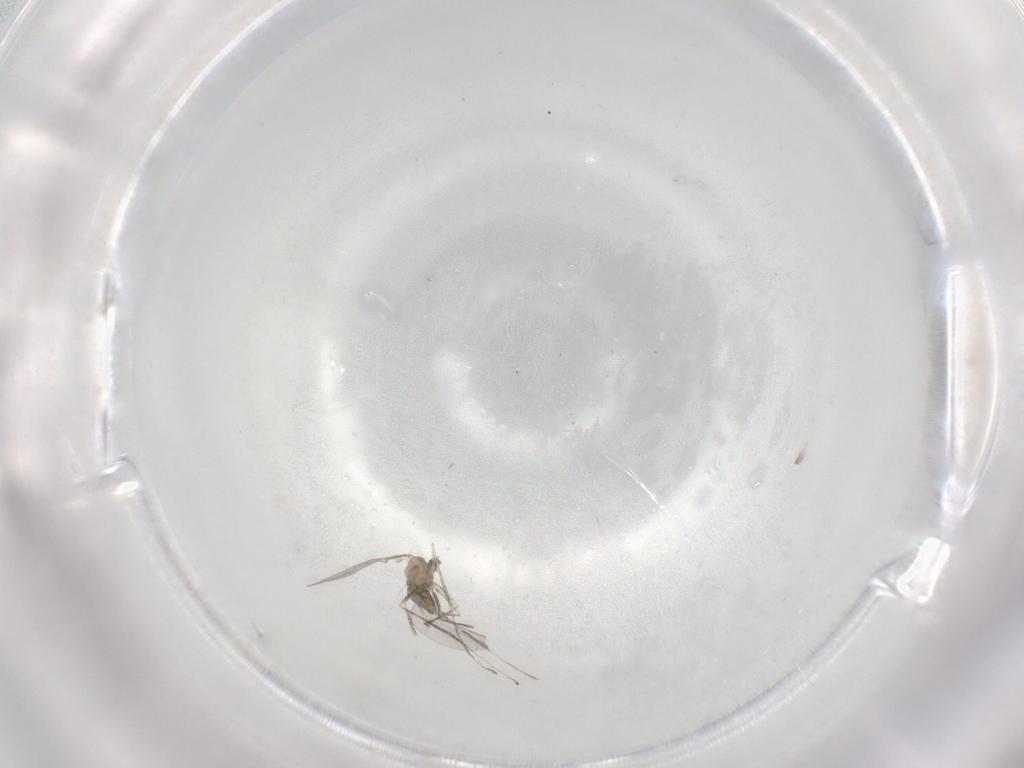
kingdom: Animalia
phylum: Arthropoda
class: Insecta
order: Diptera
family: Cecidomyiidae
